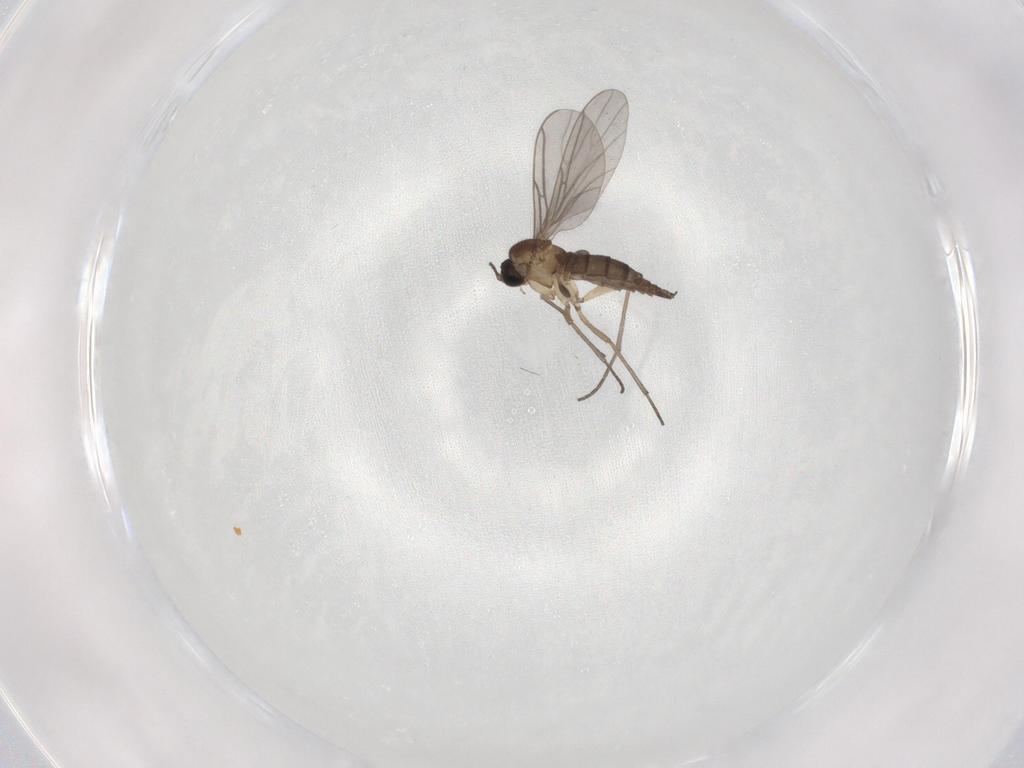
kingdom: Animalia
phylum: Arthropoda
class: Insecta
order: Diptera
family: Sciaridae
